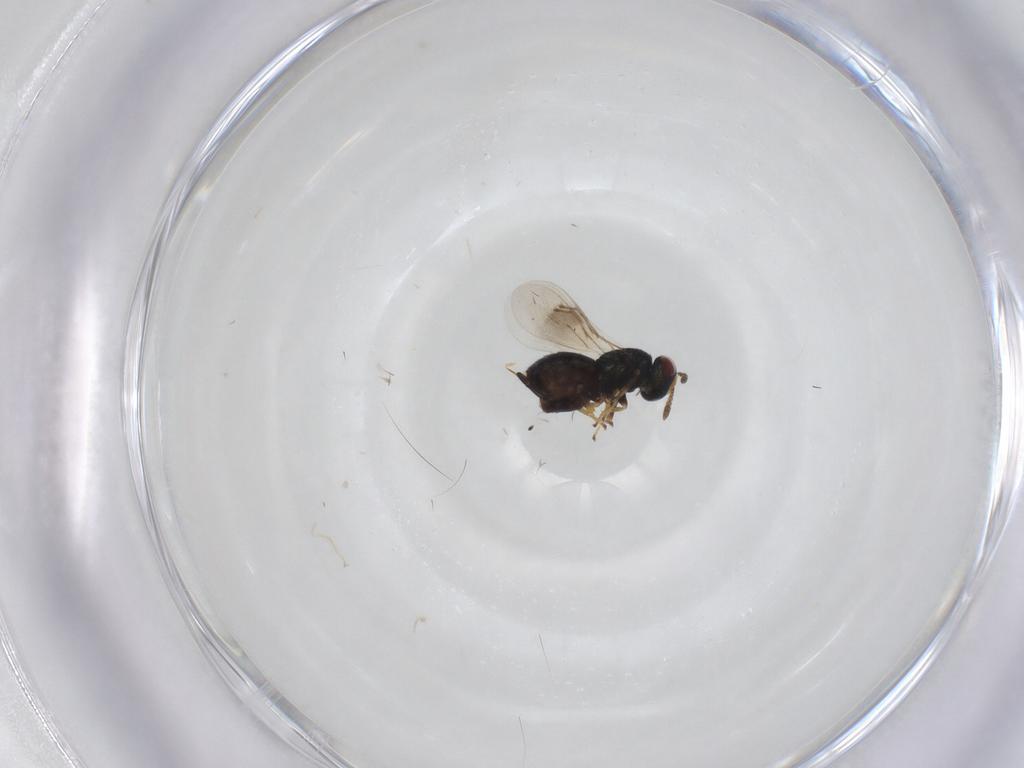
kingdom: Animalia
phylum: Arthropoda
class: Insecta
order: Hymenoptera
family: Pteromalidae
